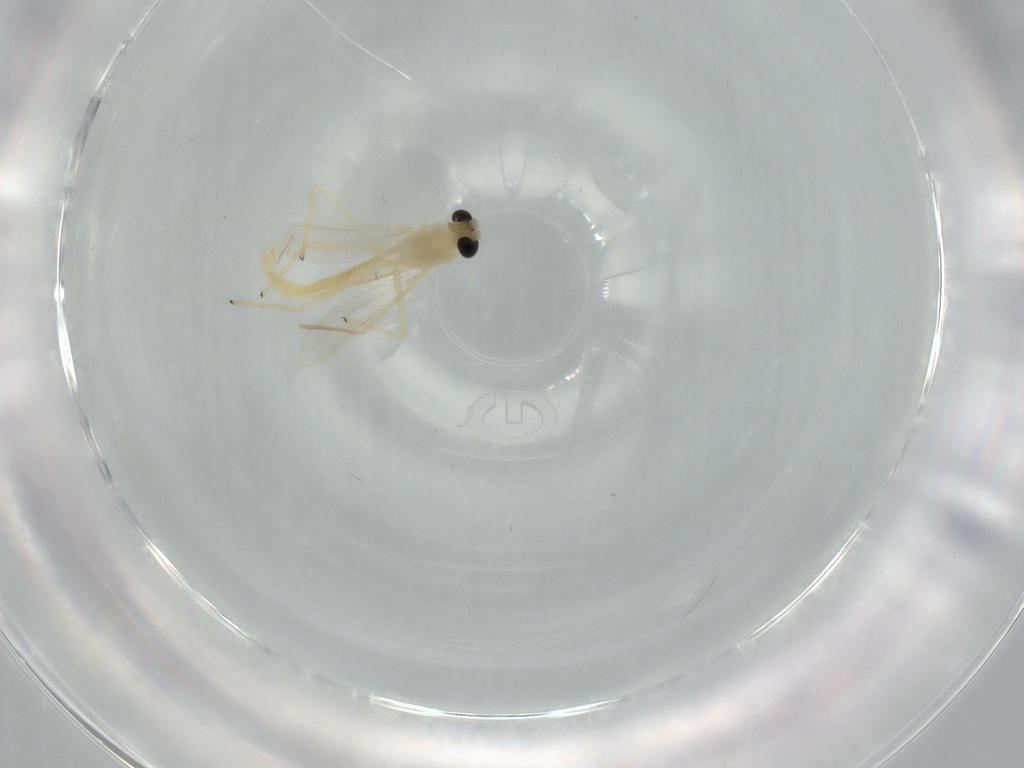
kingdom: Animalia
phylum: Arthropoda
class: Insecta
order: Diptera
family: Chironomidae
